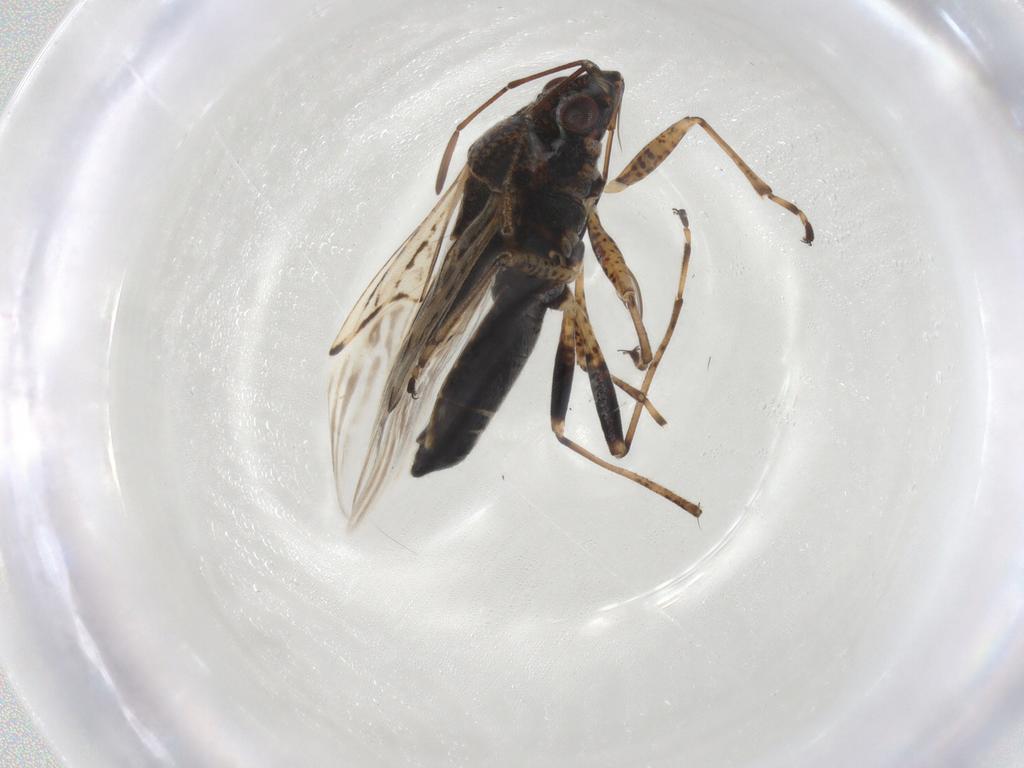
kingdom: Animalia
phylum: Arthropoda
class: Insecta
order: Hemiptera
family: Lygaeidae
